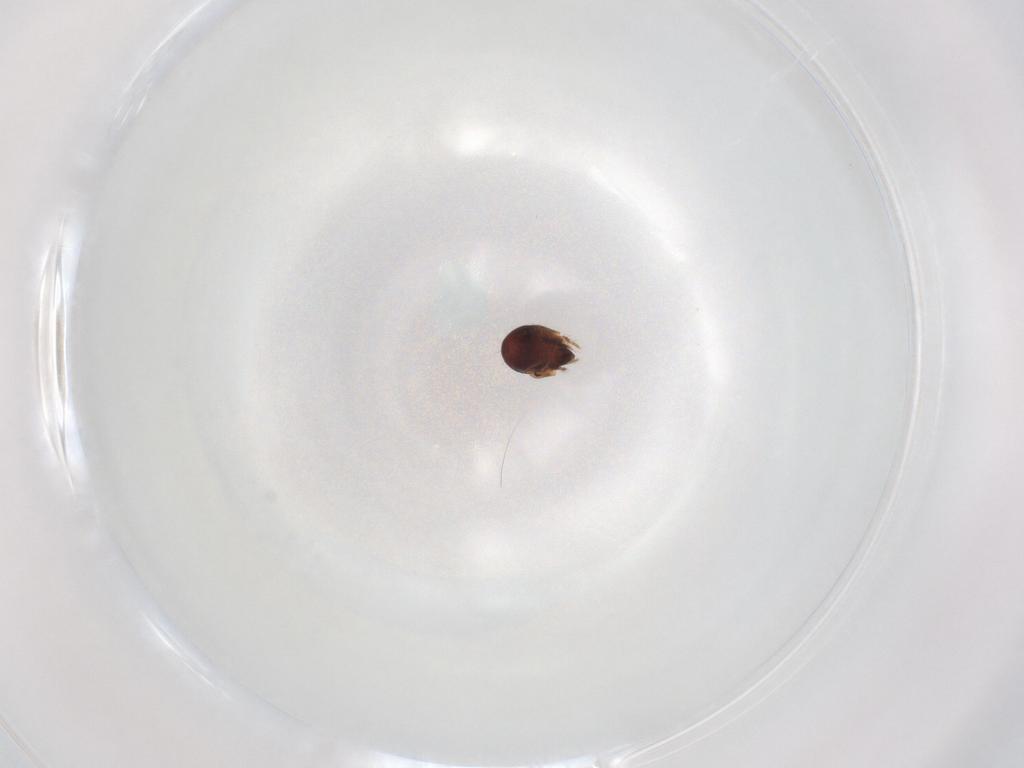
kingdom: Animalia
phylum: Arthropoda
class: Arachnida
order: Sarcoptiformes
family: Humerobatidae
